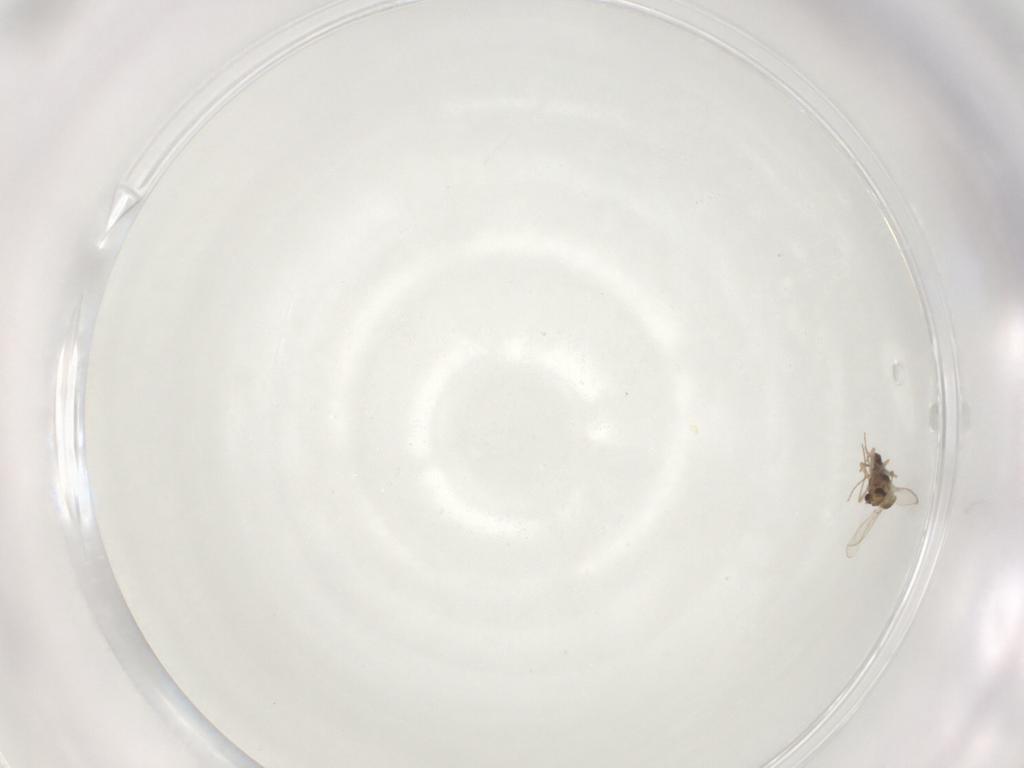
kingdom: Animalia
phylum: Arthropoda
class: Insecta
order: Diptera
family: Chironomidae
